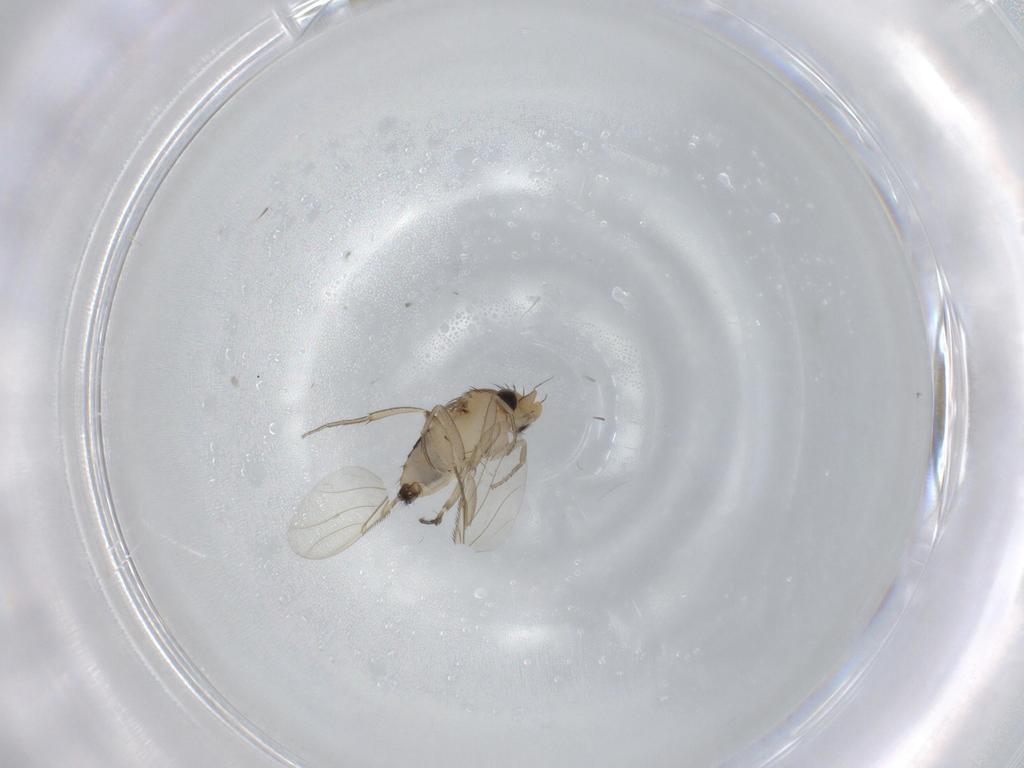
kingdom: Animalia
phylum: Arthropoda
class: Insecta
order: Diptera
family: Phoridae
